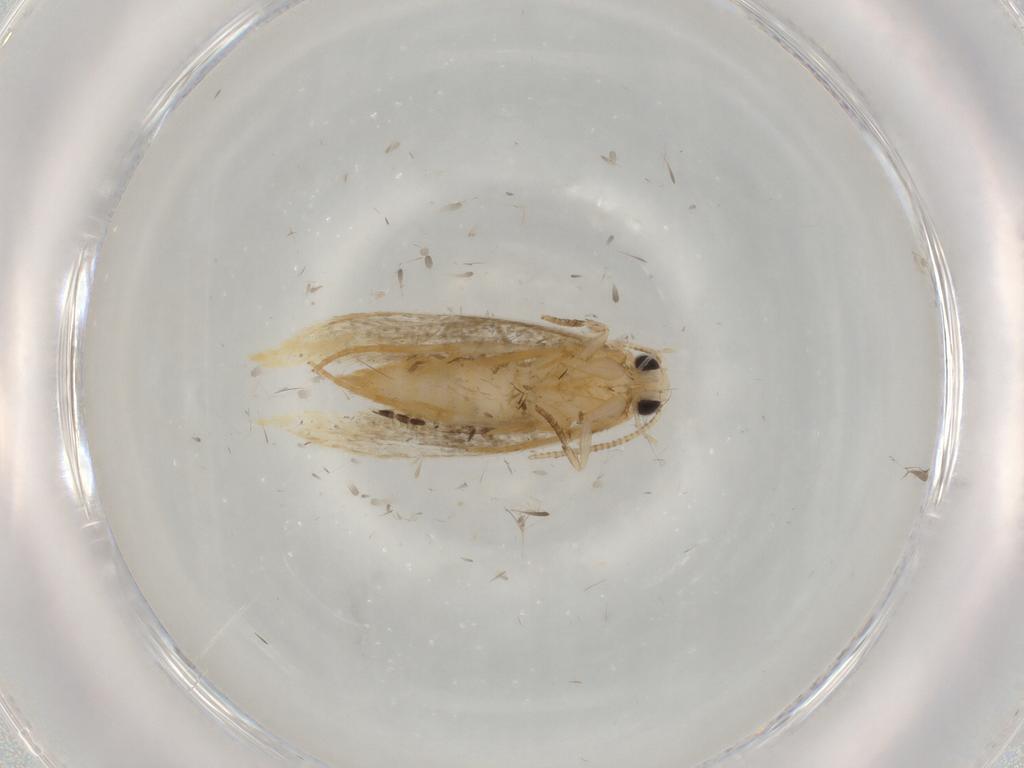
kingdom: Animalia
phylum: Arthropoda
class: Insecta
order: Lepidoptera
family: Tineidae
